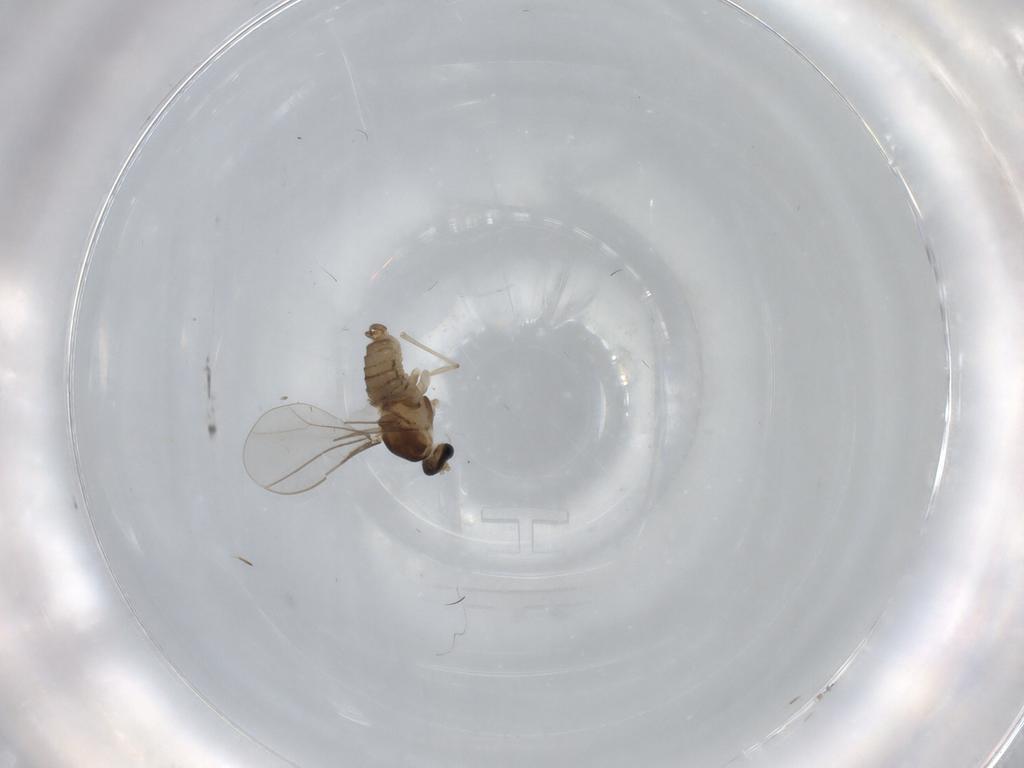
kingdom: Animalia
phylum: Arthropoda
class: Insecta
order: Diptera
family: Cecidomyiidae
